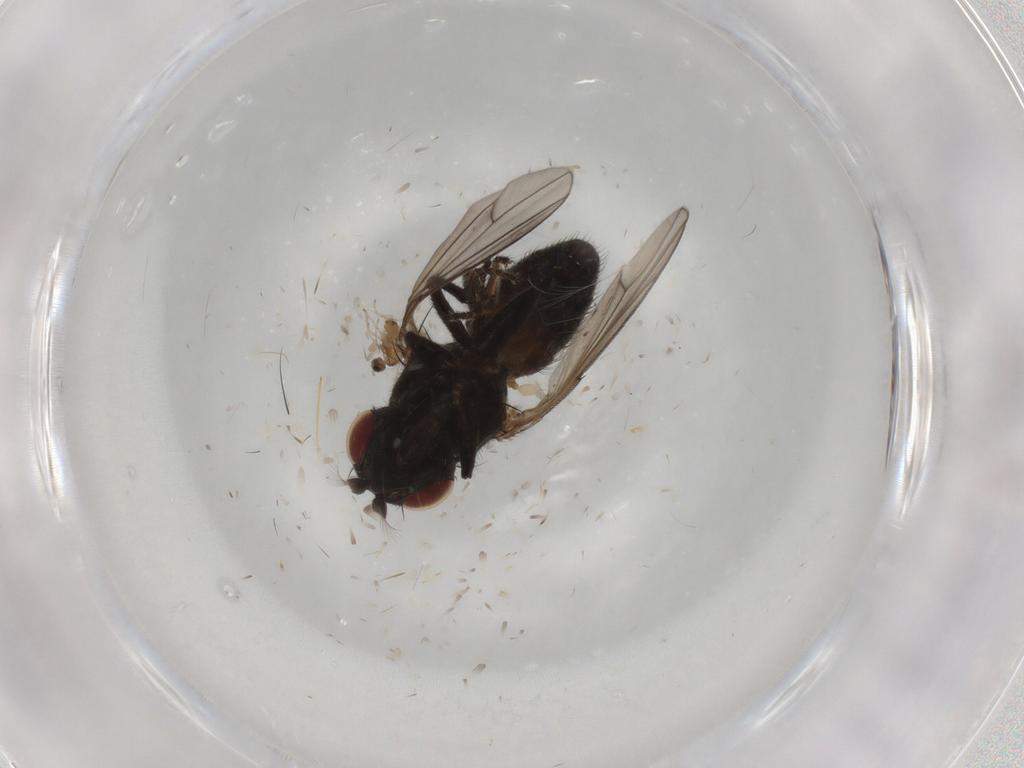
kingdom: Animalia
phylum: Arthropoda
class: Insecta
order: Diptera
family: Ephydridae
